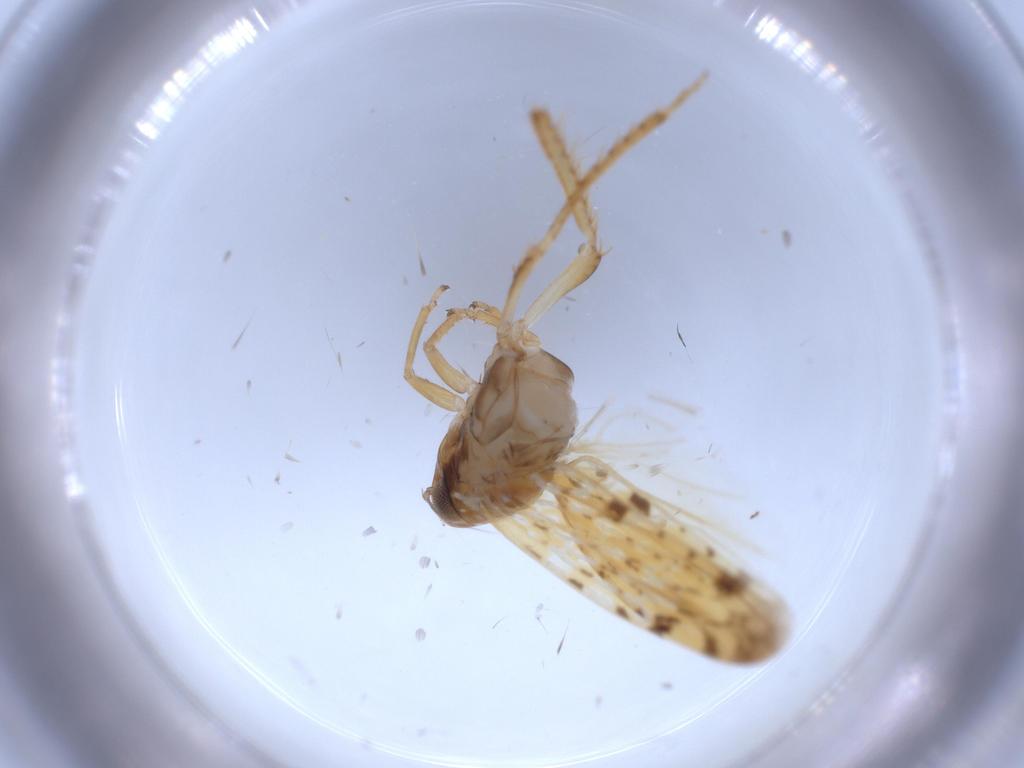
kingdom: Animalia
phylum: Arthropoda
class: Insecta
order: Hemiptera
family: Cicadellidae
